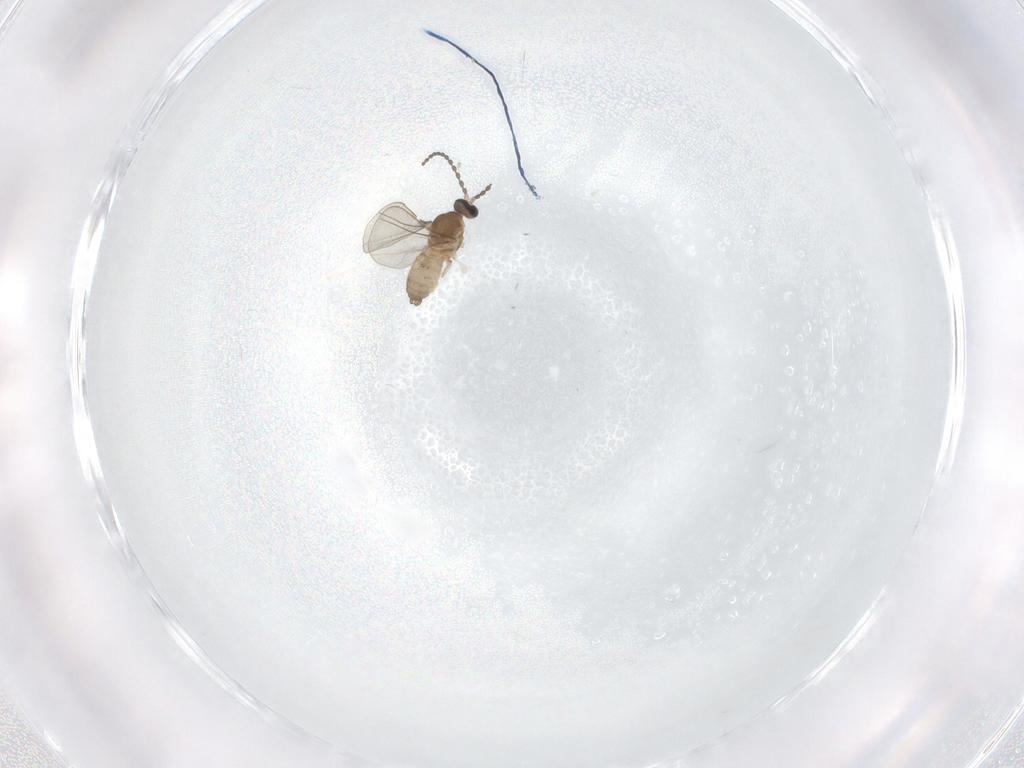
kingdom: Animalia
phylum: Arthropoda
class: Insecta
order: Diptera
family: Cecidomyiidae
